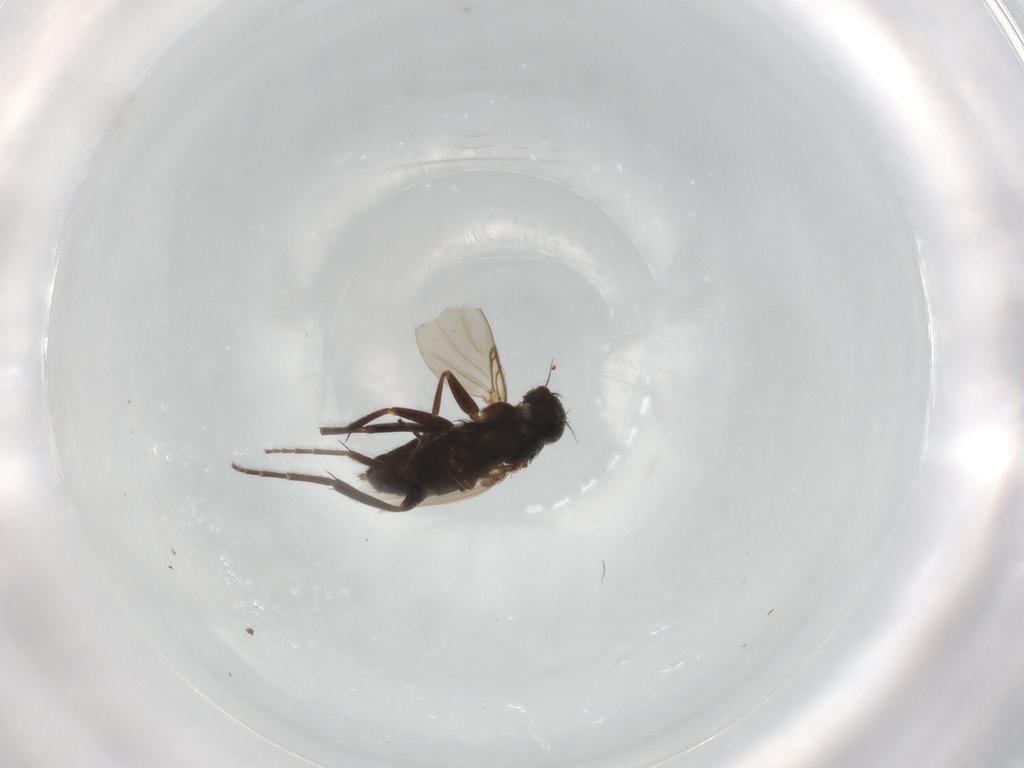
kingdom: Animalia
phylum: Arthropoda
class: Insecta
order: Diptera
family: Phoridae
